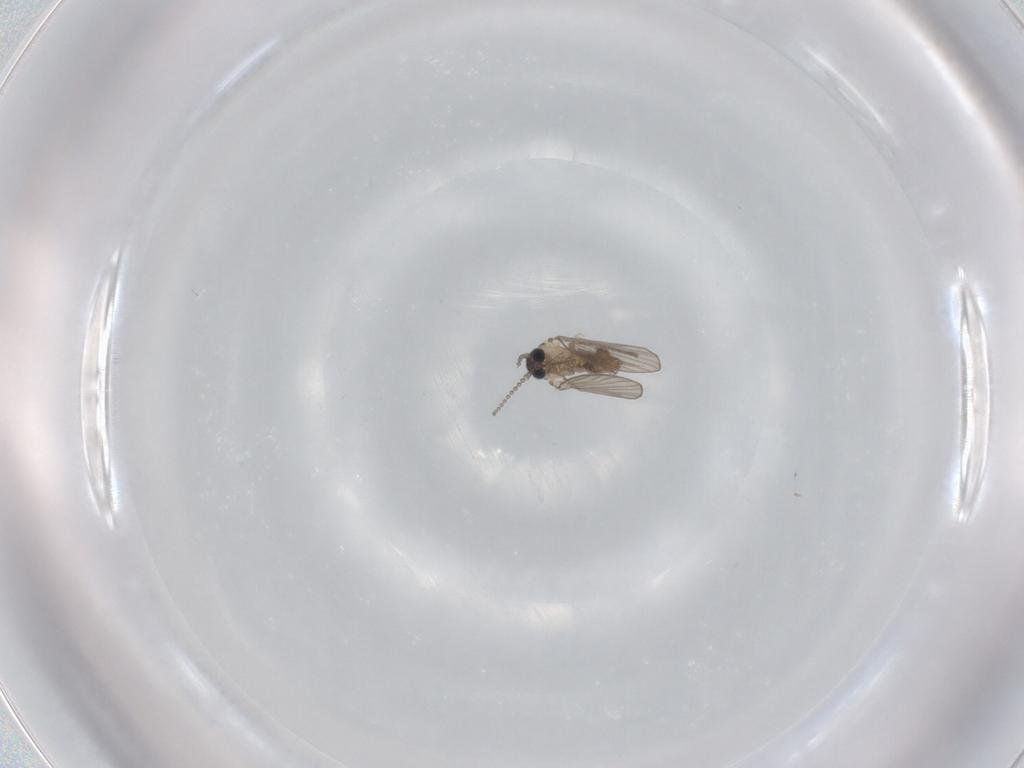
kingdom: Animalia
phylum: Arthropoda
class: Insecta
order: Diptera
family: Psychodidae
